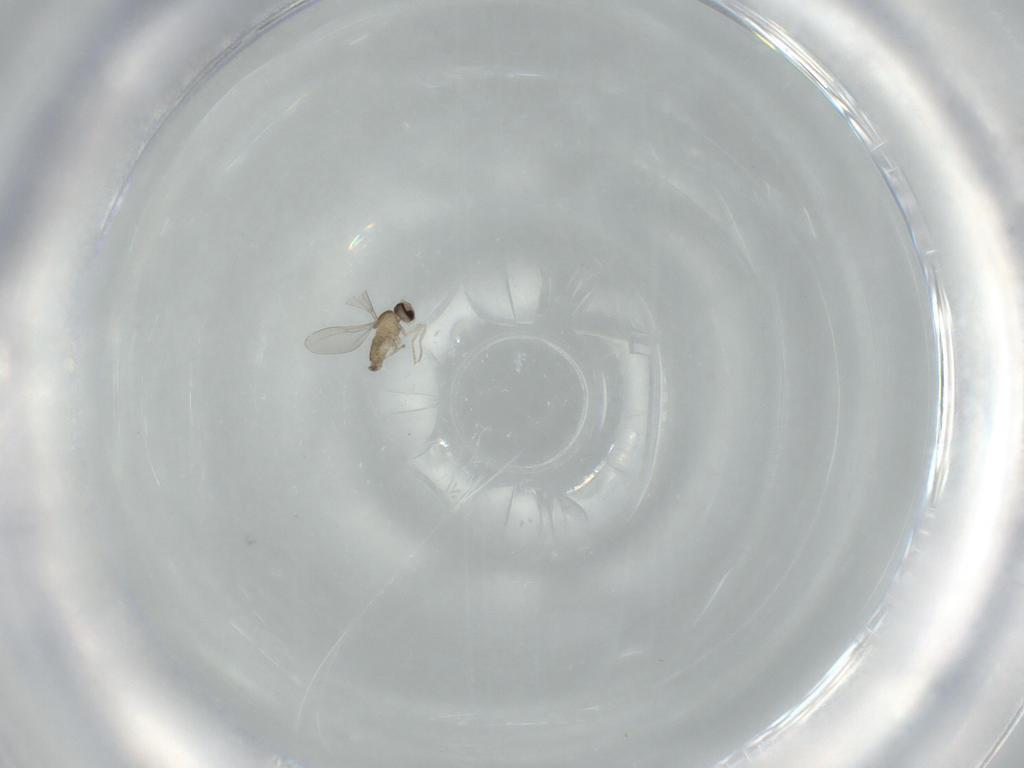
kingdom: Animalia
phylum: Arthropoda
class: Insecta
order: Diptera
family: Cecidomyiidae
